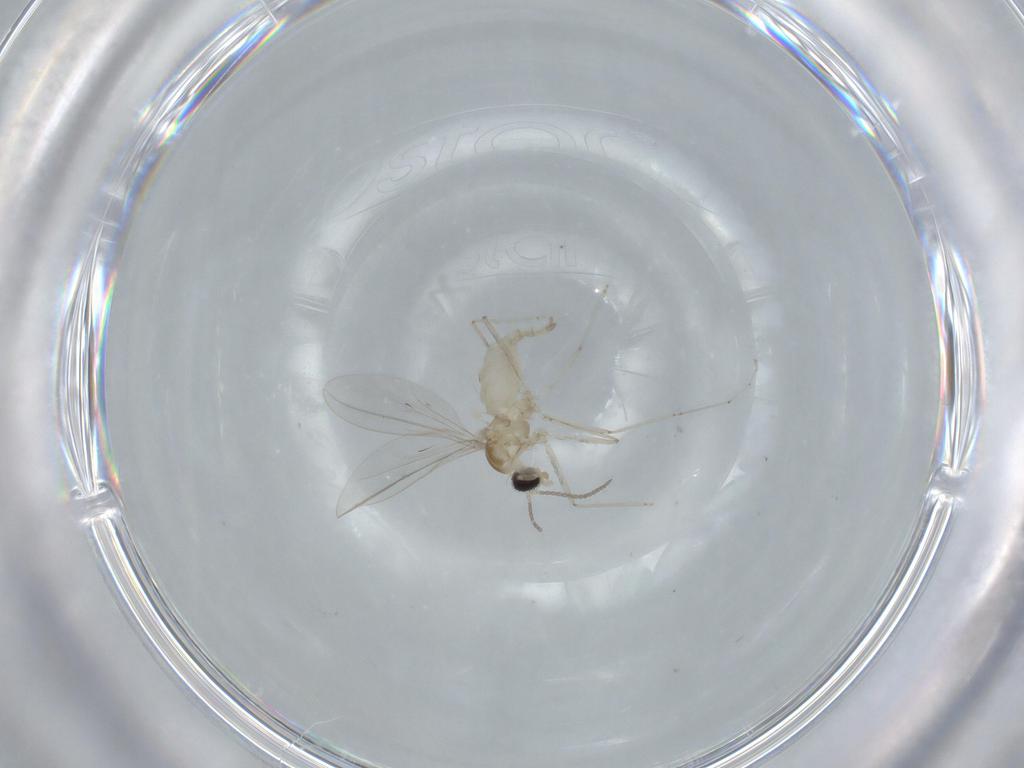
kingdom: Animalia
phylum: Arthropoda
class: Insecta
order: Diptera
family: Cecidomyiidae
